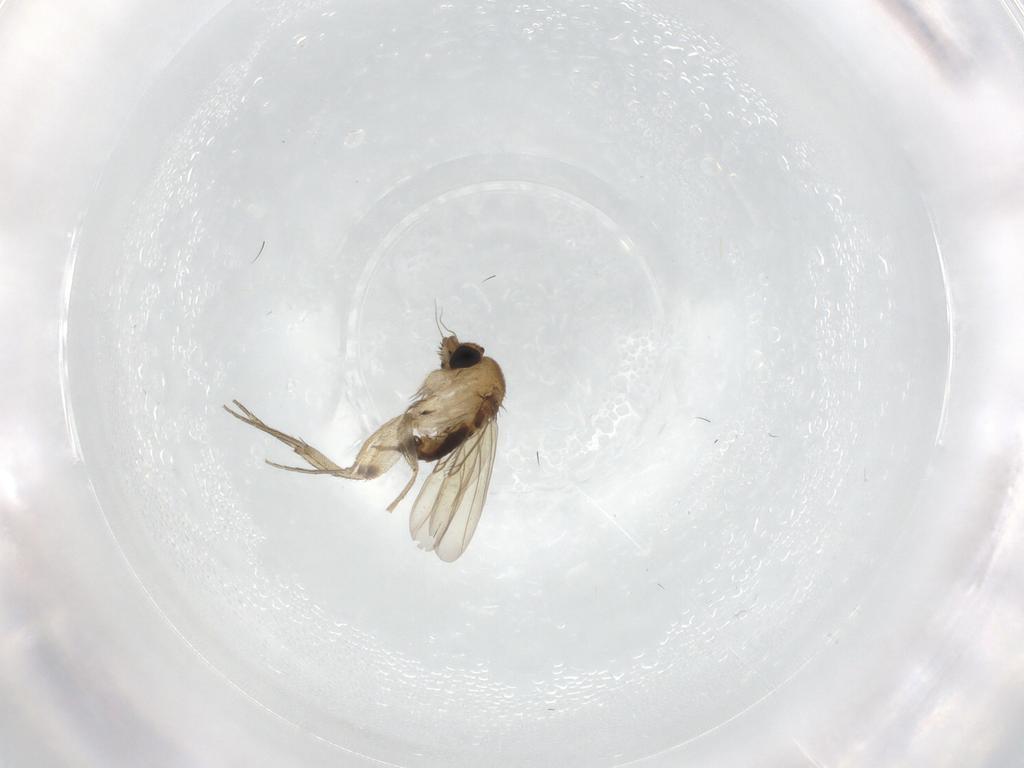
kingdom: Animalia
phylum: Arthropoda
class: Insecta
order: Diptera
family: Phoridae
